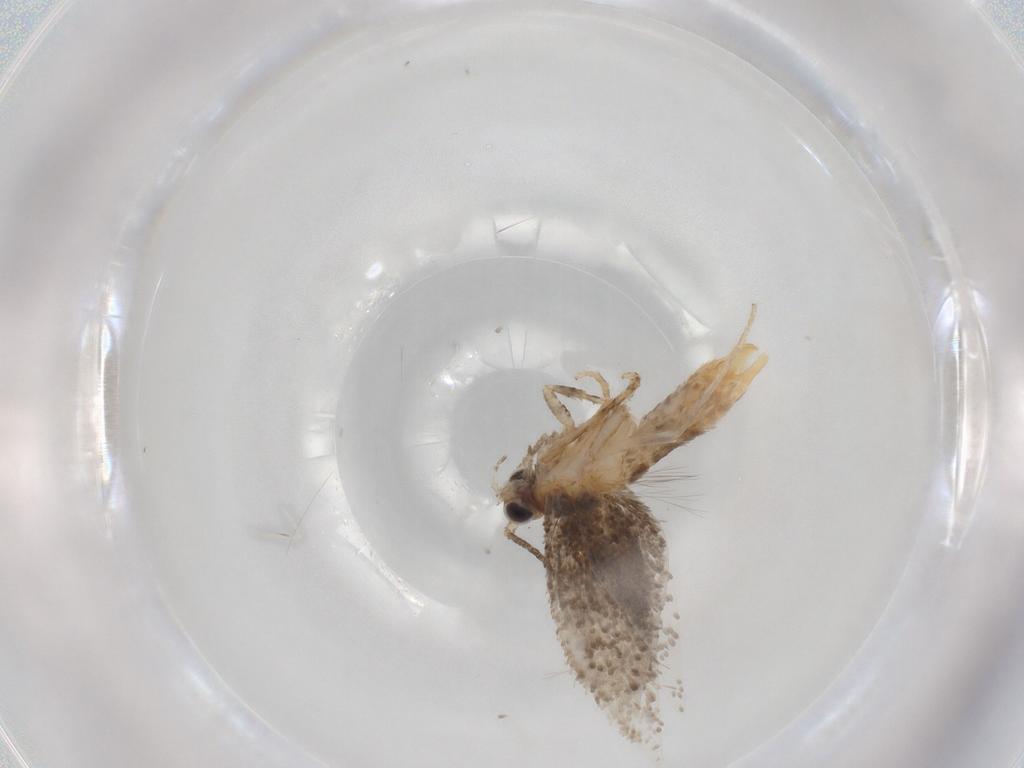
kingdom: Animalia
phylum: Arthropoda
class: Insecta
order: Lepidoptera
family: Tineidae
